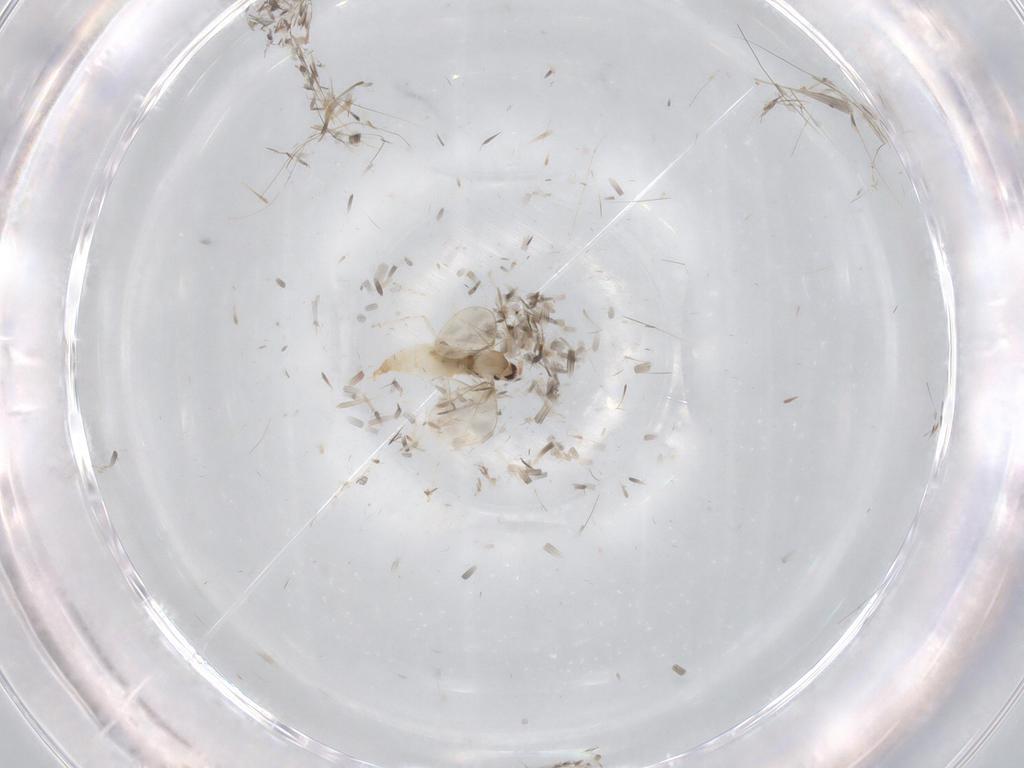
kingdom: Animalia
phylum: Arthropoda
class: Insecta
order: Diptera
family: Cecidomyiidae
